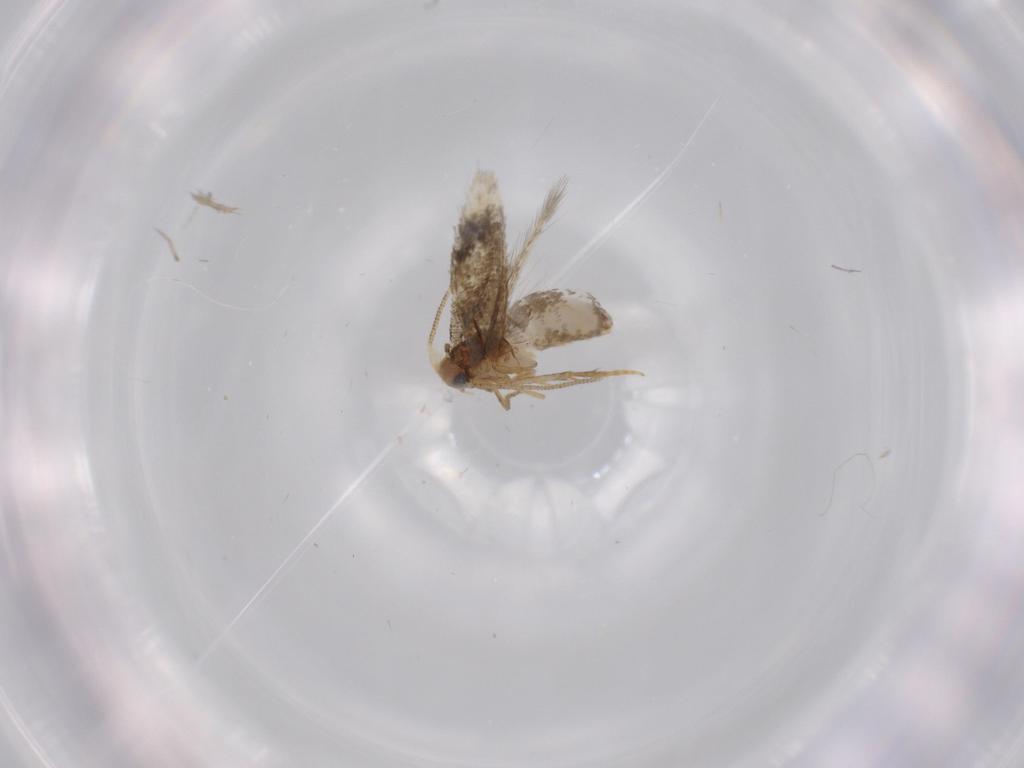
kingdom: Animalia
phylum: Arthropoda
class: Insecta
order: Lepidoptera
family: Nepticulidae
